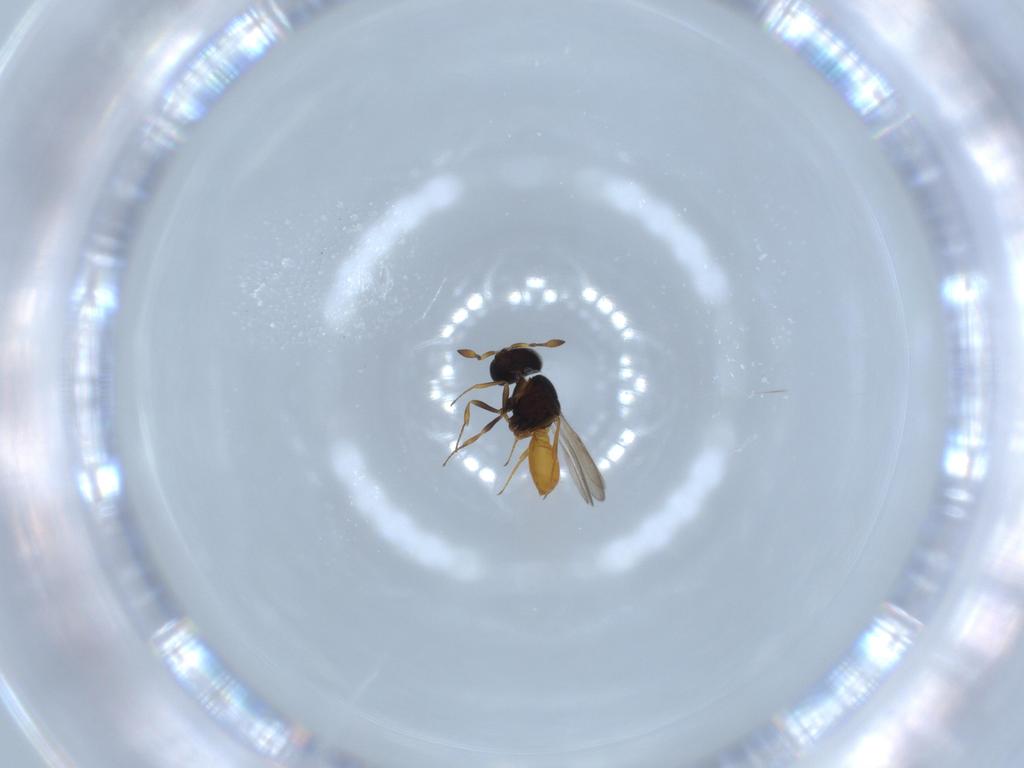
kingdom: Animalia
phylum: Arthropoda
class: Insecta
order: Hymenoptera
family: Scelionidae
